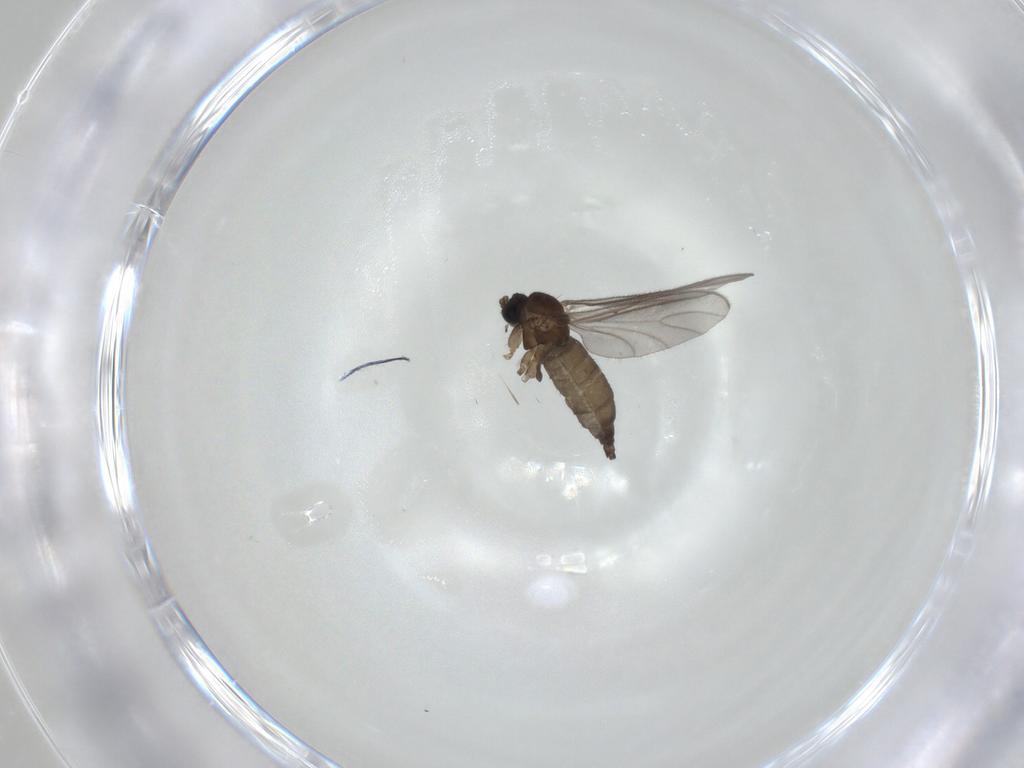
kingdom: Animalia
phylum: Arthropoda
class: Insecta
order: Diptera
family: Sciaridae
